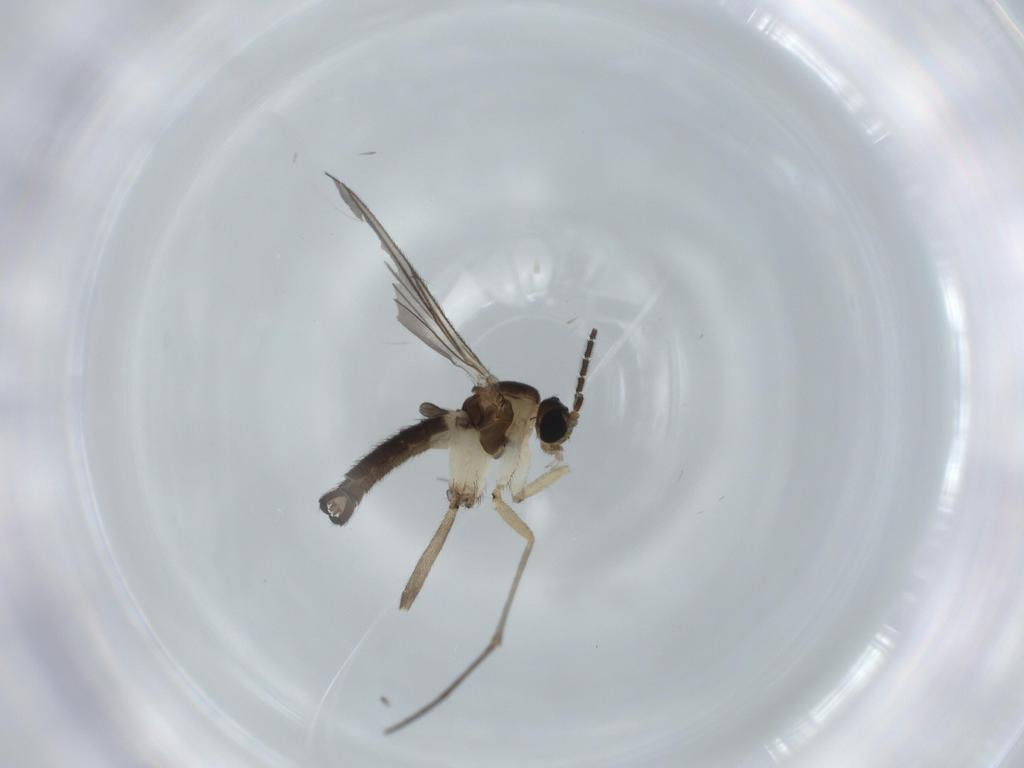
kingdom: Animalia
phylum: Arthropoda
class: Insecta
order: Diptera
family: Sciaridae
